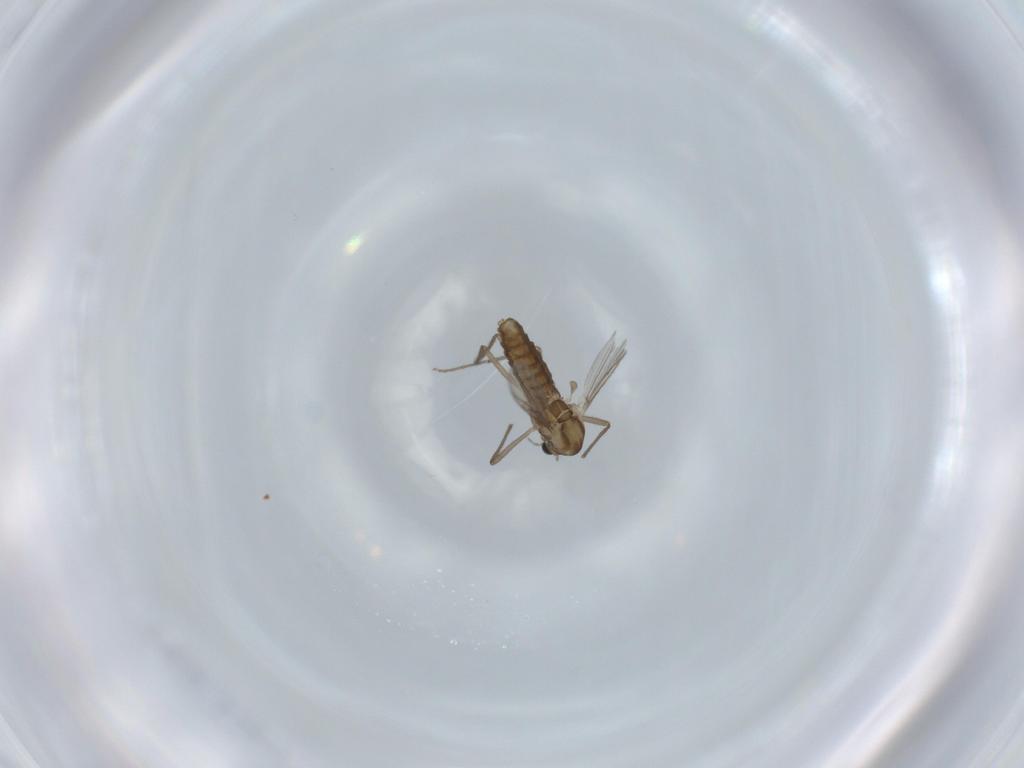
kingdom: Animalia
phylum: Arthropoda
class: Insecta
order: Diptera
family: Chironomidae
